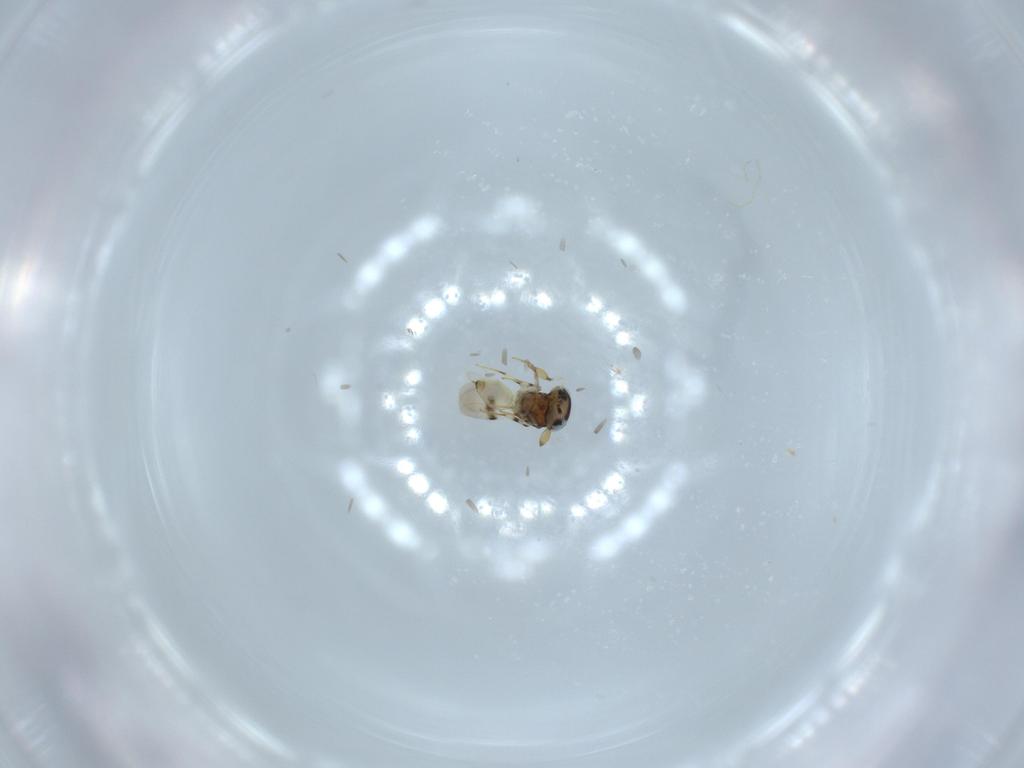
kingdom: Animalia
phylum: Arthropoda
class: Insecta
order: Hymenoptera
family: Scelionidae
